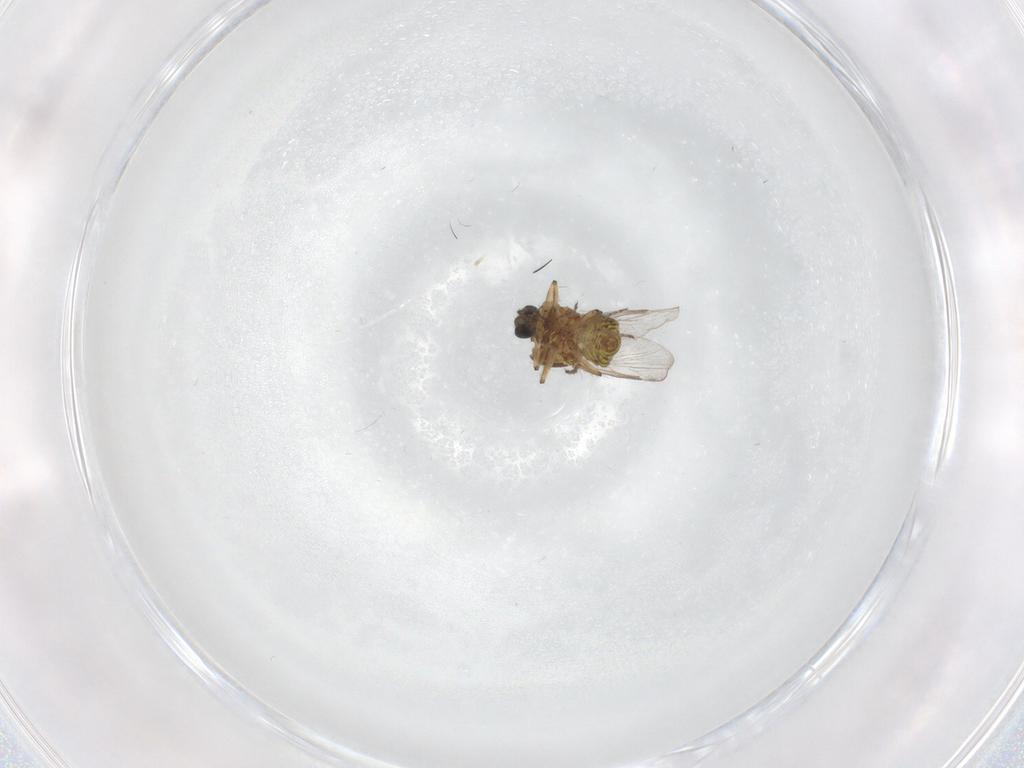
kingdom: Animalia
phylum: Arthropoda
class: Insecta
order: Diptera
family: Ceratopogonidae
